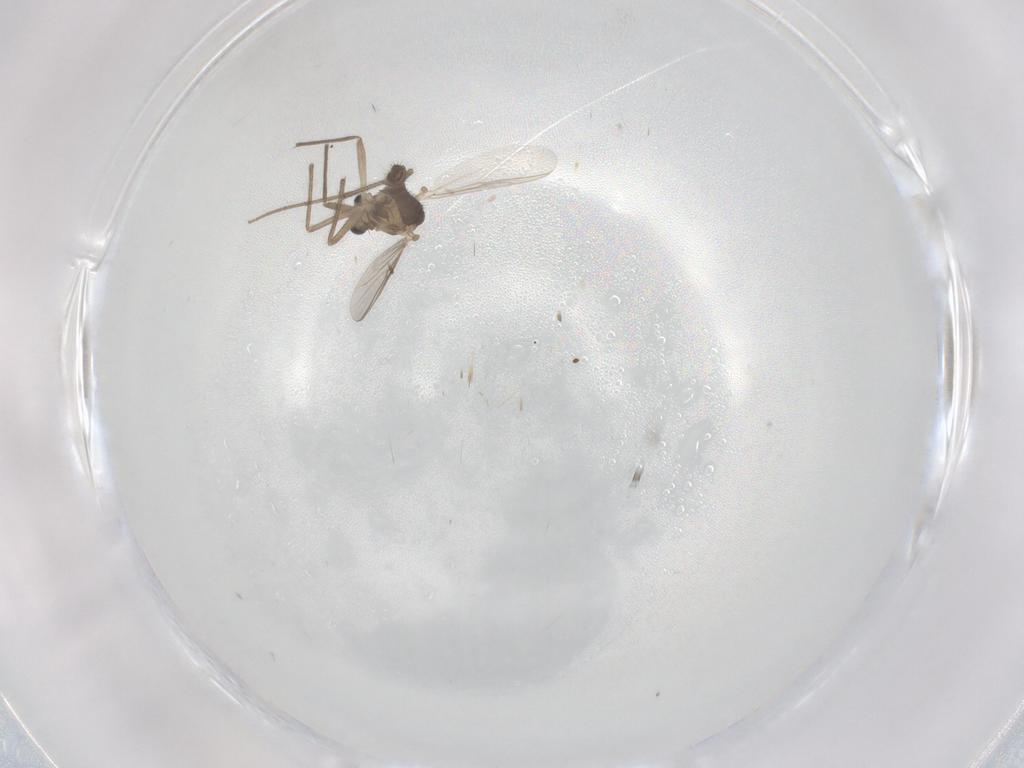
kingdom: Animalia
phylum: Arthropoda
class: Insecta
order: Diptera
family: Chironomidae
